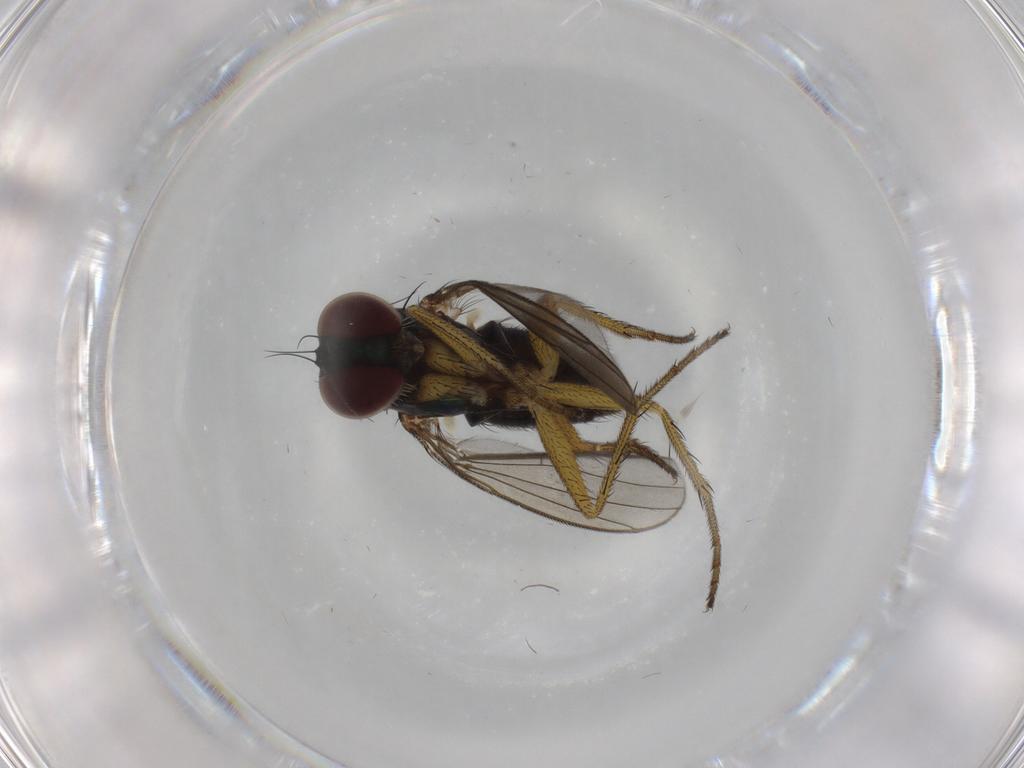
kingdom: Animalia
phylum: Arthropoda
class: Insecta
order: Diptera
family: Dolichopodidae
